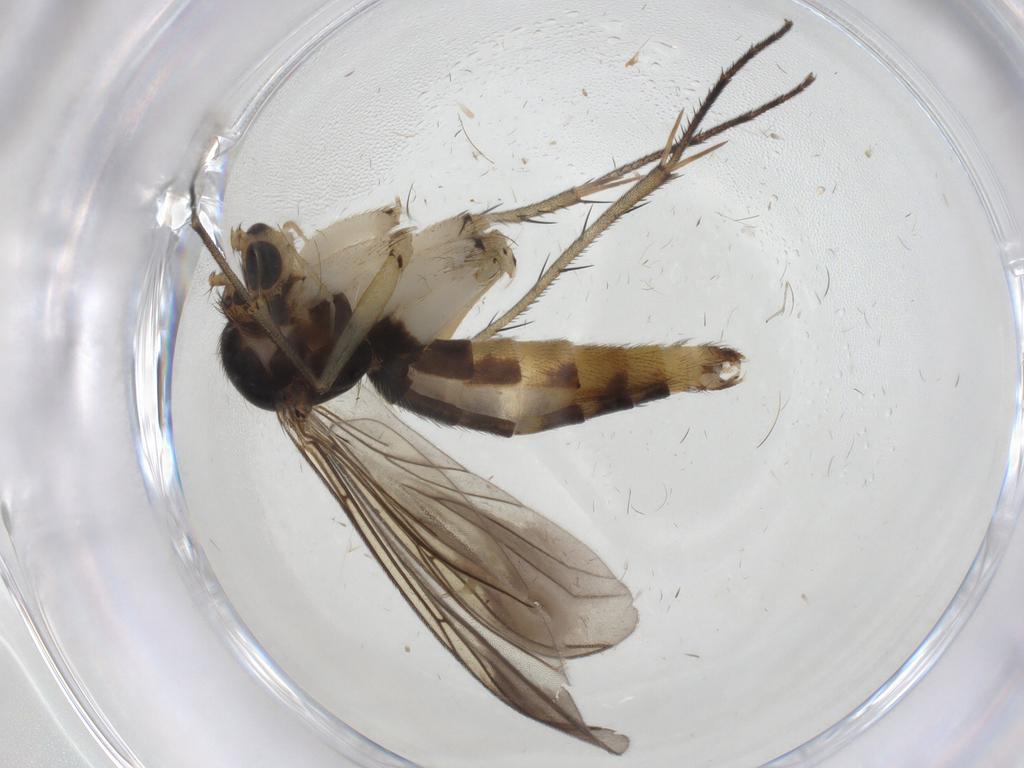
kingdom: Animalia
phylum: Arthropoda
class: Insecta
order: Diptera
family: Mycetophilidae
